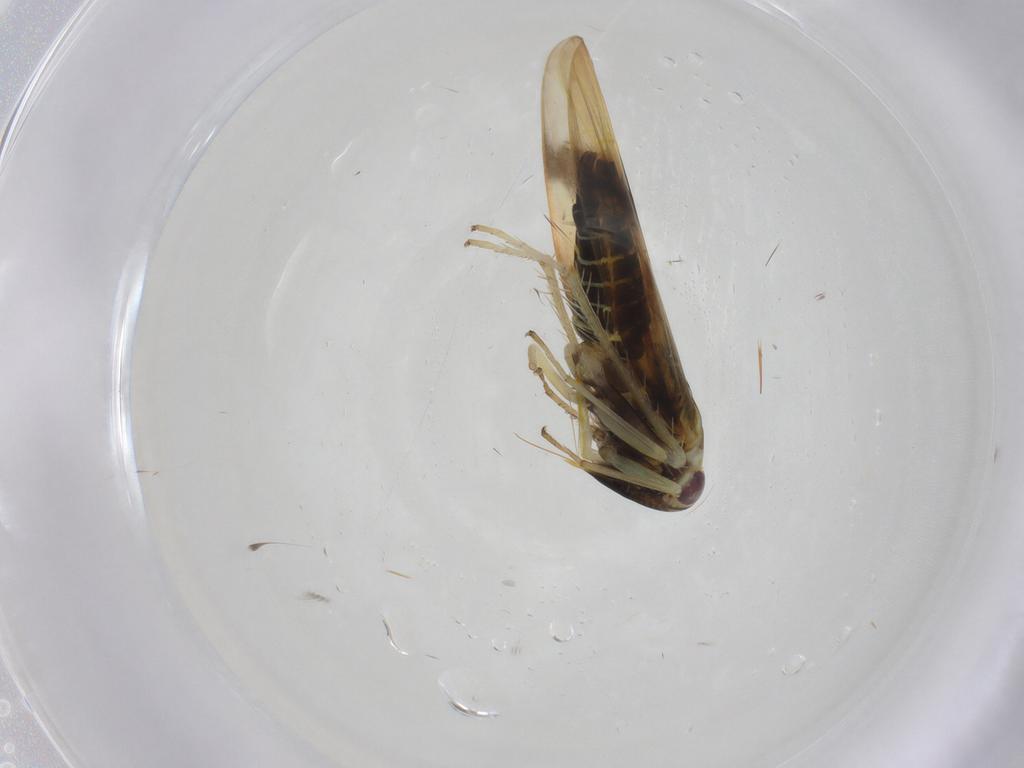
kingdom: Animalia
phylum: Arthropoda
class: Insecta
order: Hemiptera
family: Cicadellidae
